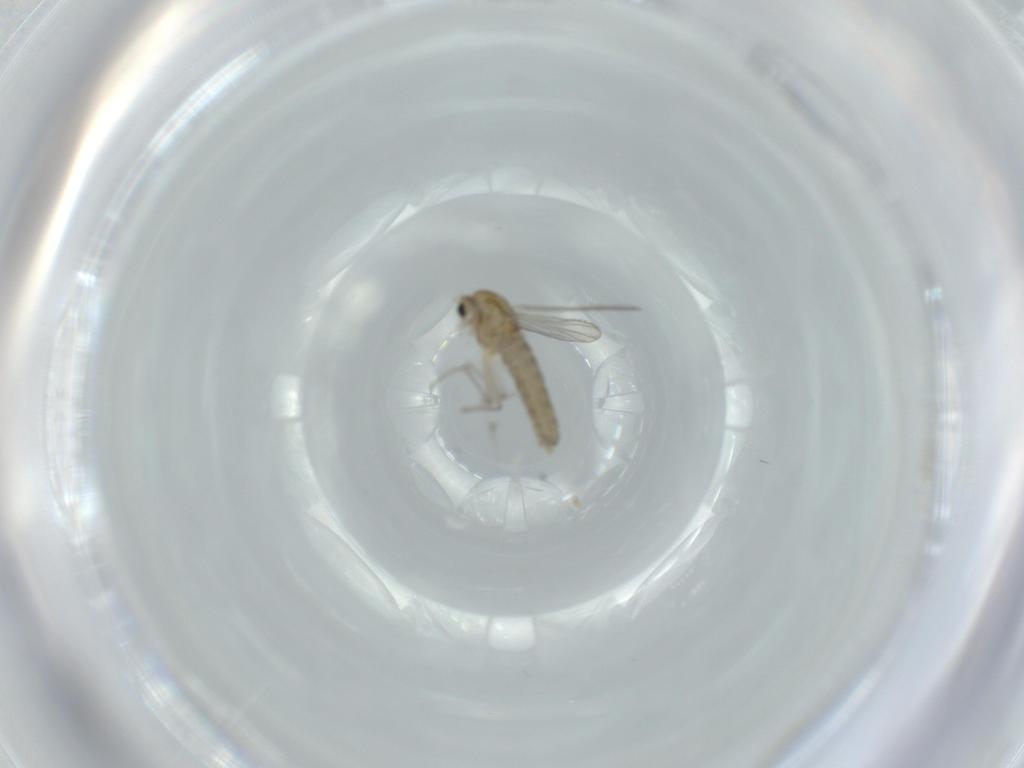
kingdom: Animalia
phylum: Arthropoda
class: Insecta
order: Diptera
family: Chironomidae
